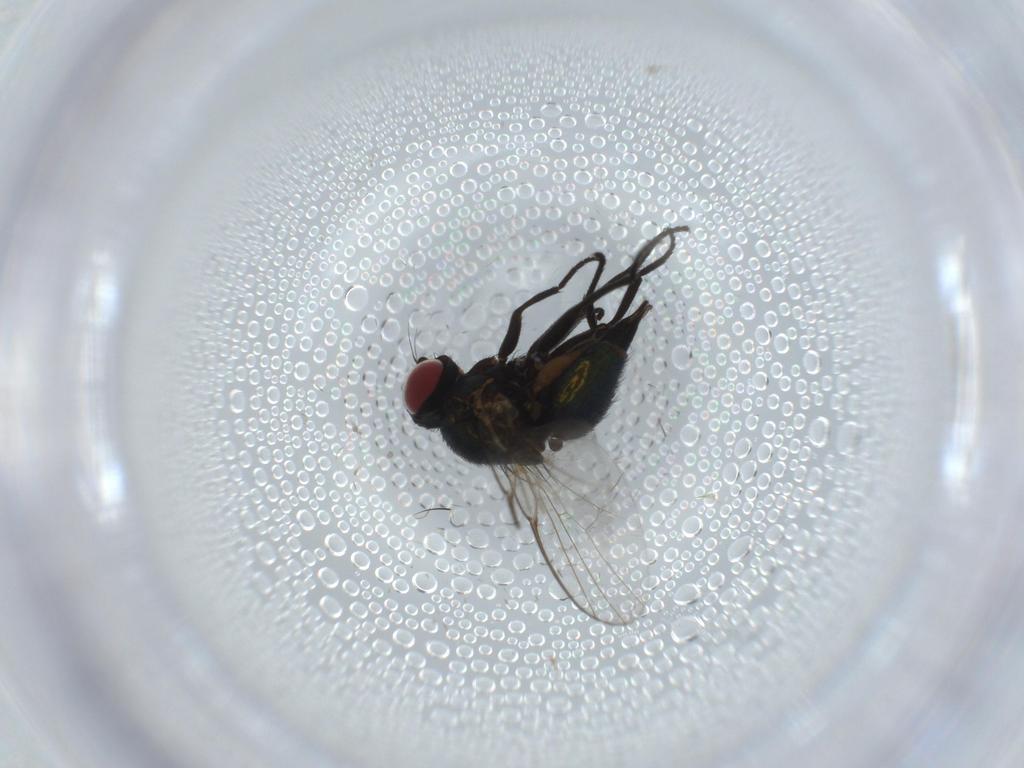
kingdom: Animalia
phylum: Arthropoda
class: Insecta
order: Diptera
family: Agromyzidae
